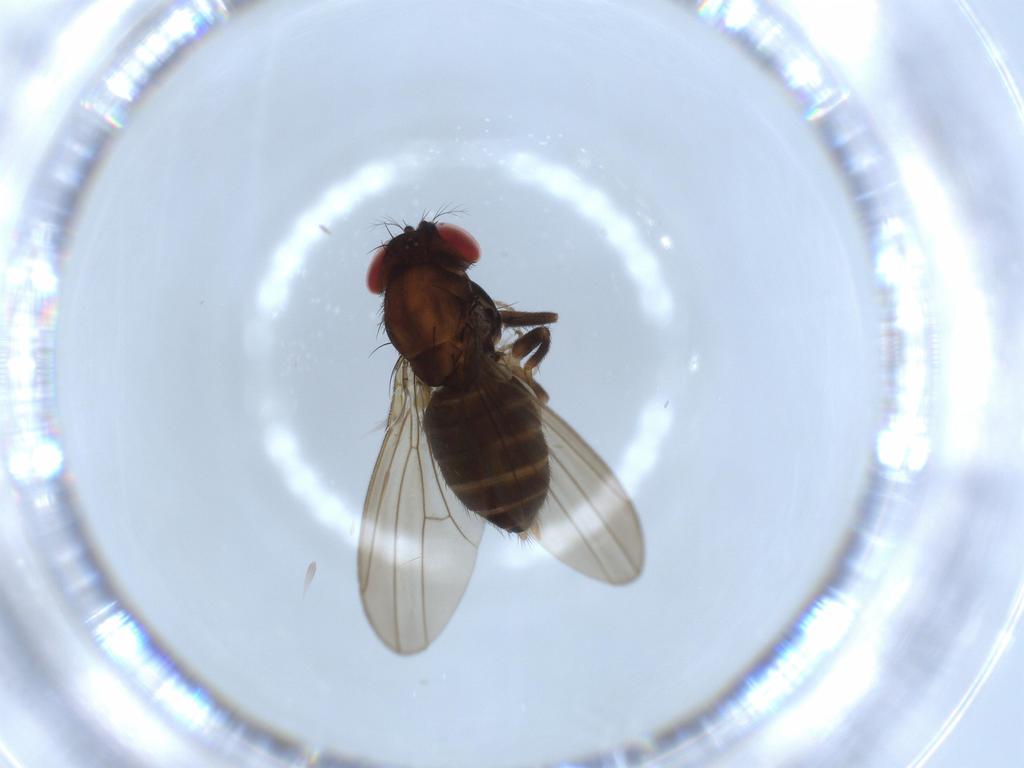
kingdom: Animalia
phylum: Arthropoda
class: Insecta
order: Diptera
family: Drosophilidae
